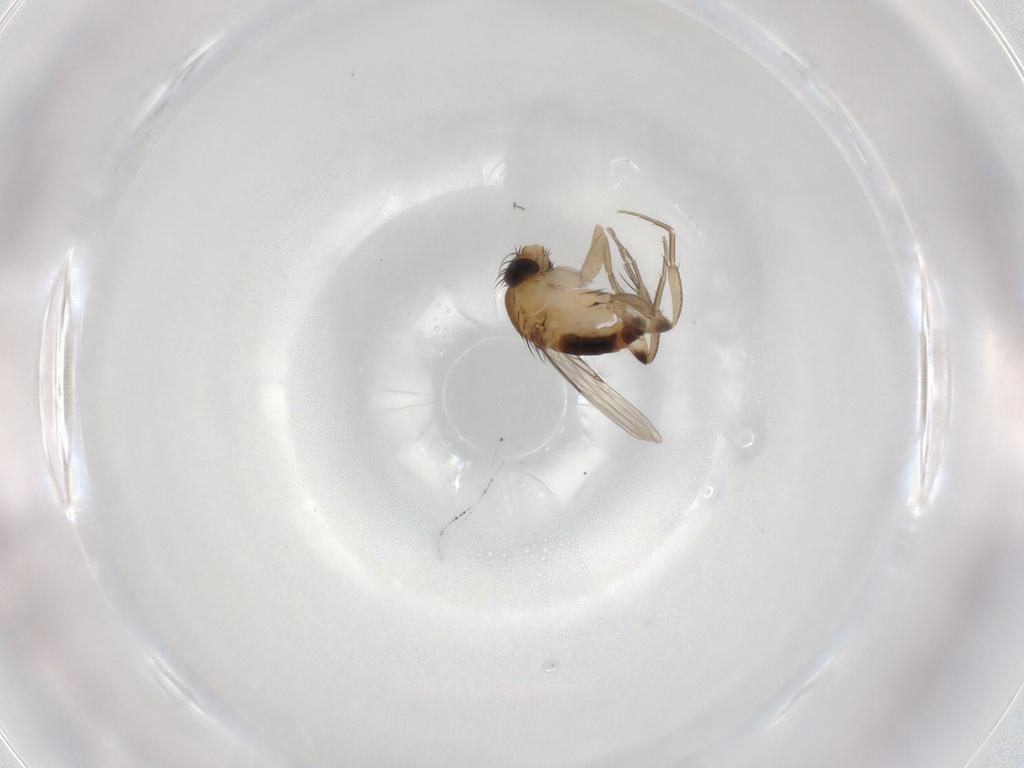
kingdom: Animalia
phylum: Arthropoda
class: Insecta
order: Diptera
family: Phoridae
